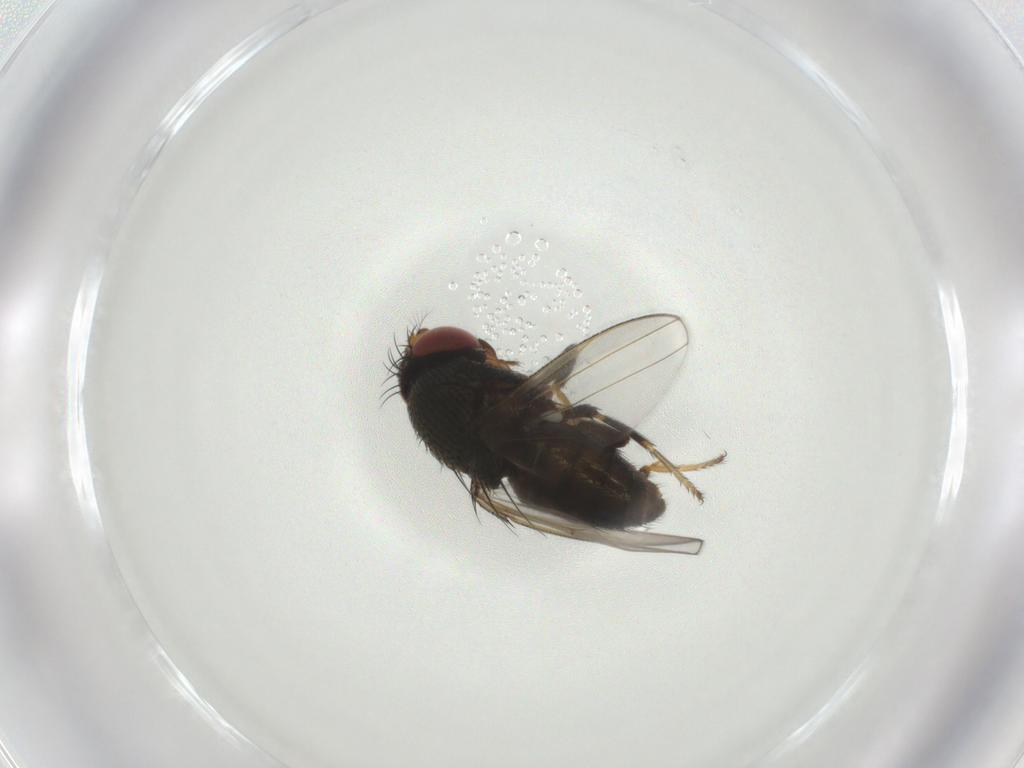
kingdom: Animalia
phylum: Arthropoda
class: Insecta
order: Diptera
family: Ephydridae
